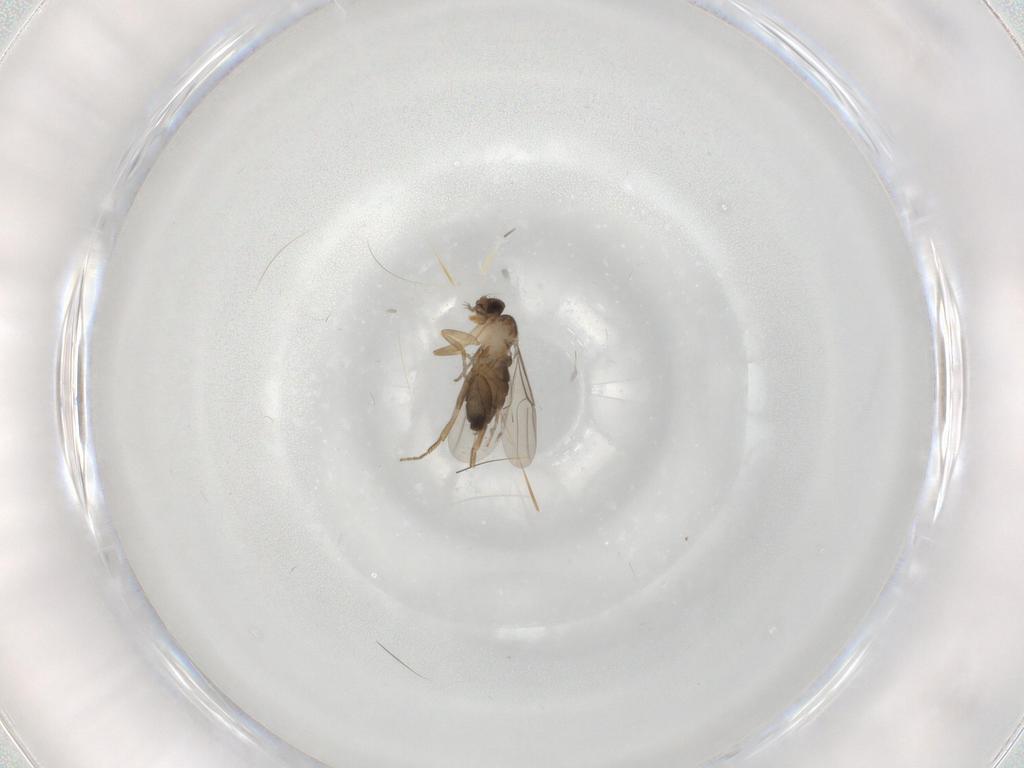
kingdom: Animalia
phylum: Arthropoda
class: Insecta
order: Diptera
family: Phoridae
